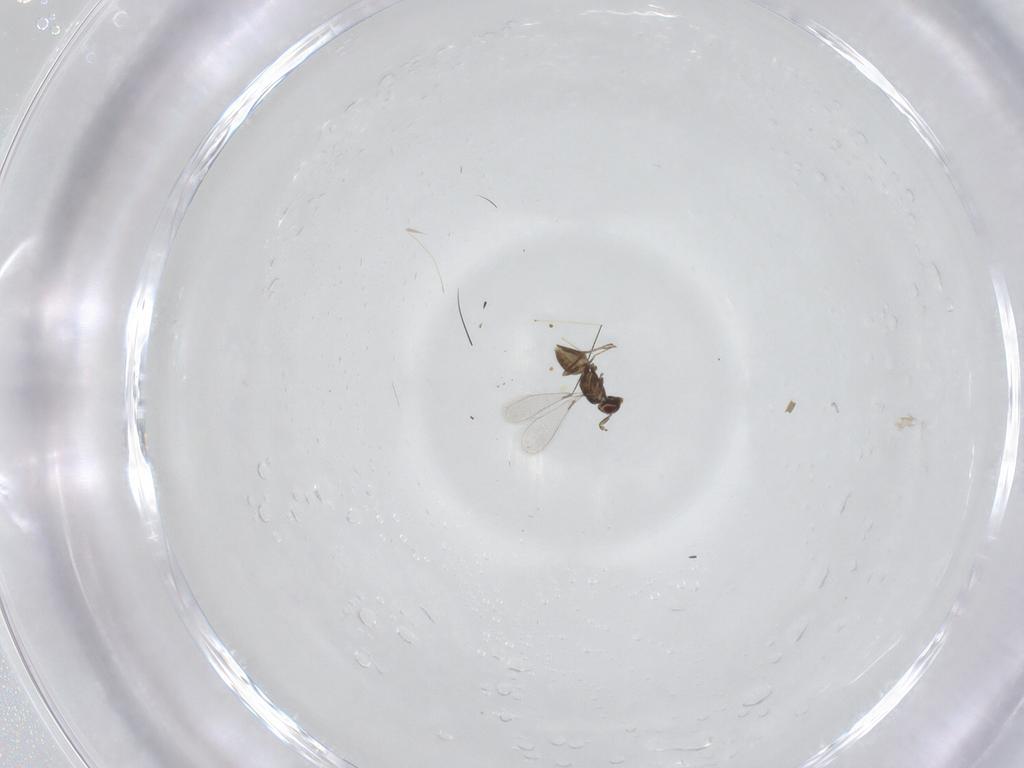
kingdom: Animalia
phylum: Arthropoda
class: Insecta
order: Hymenoptera
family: Mymaridae
